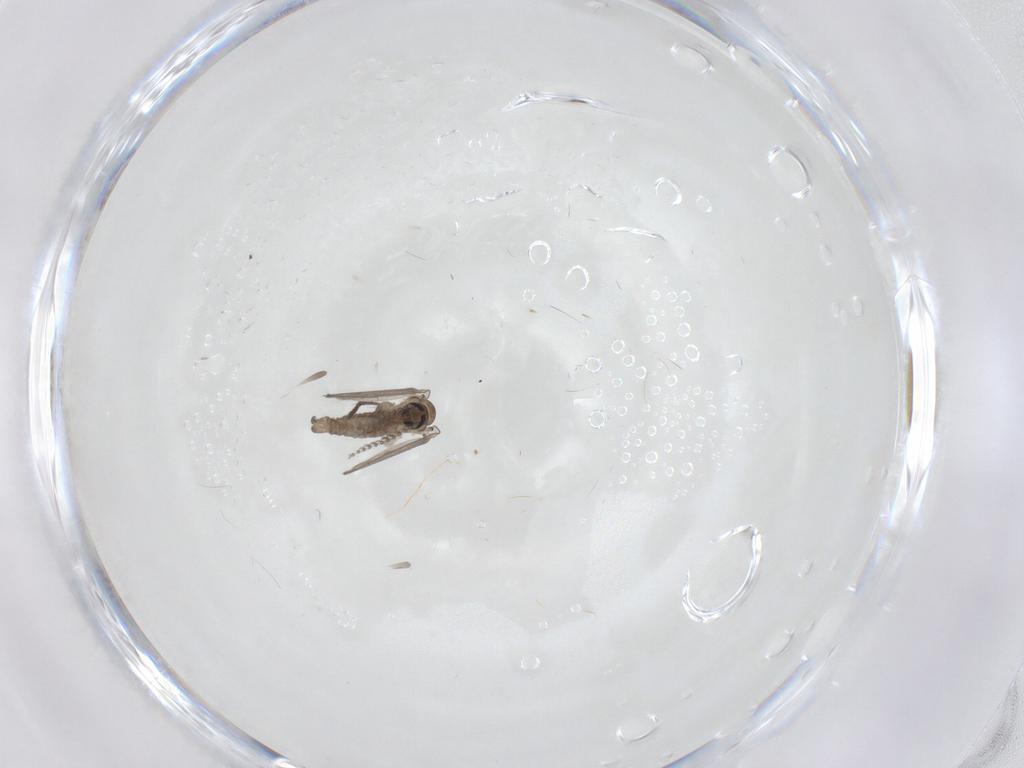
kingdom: Animalia
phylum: Arthropoda
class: Insecta
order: Diptera
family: Psychodidae
